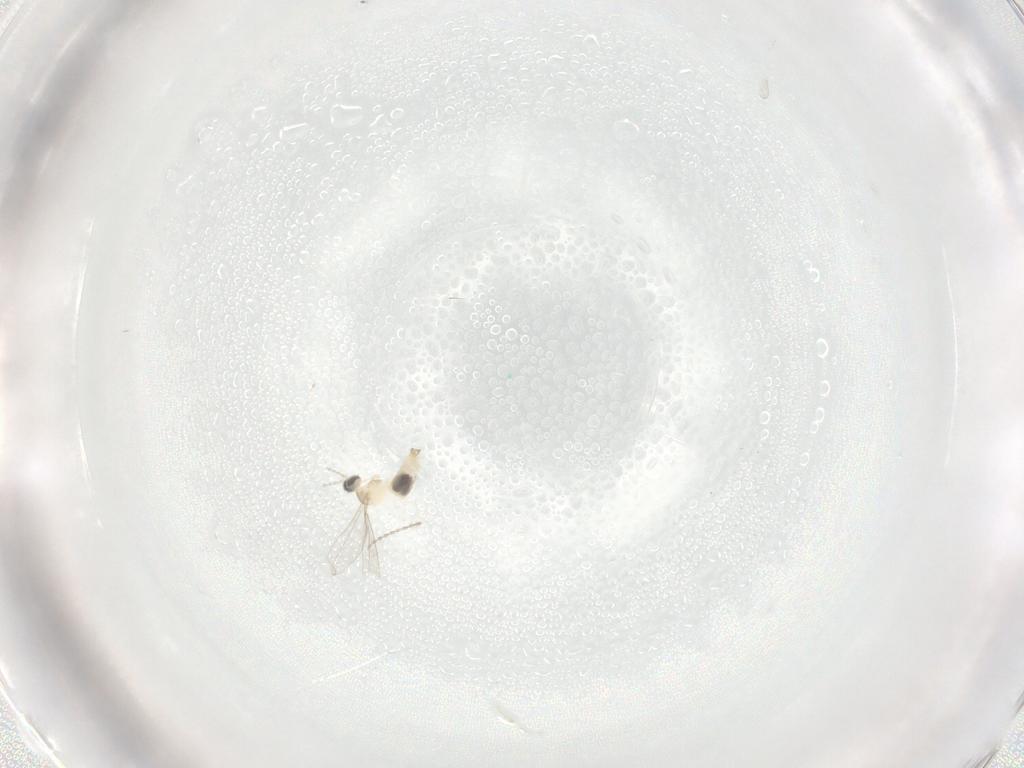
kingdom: Animalia
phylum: Arthropoda
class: Insecta
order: Diptera
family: Cecidomyiidae
